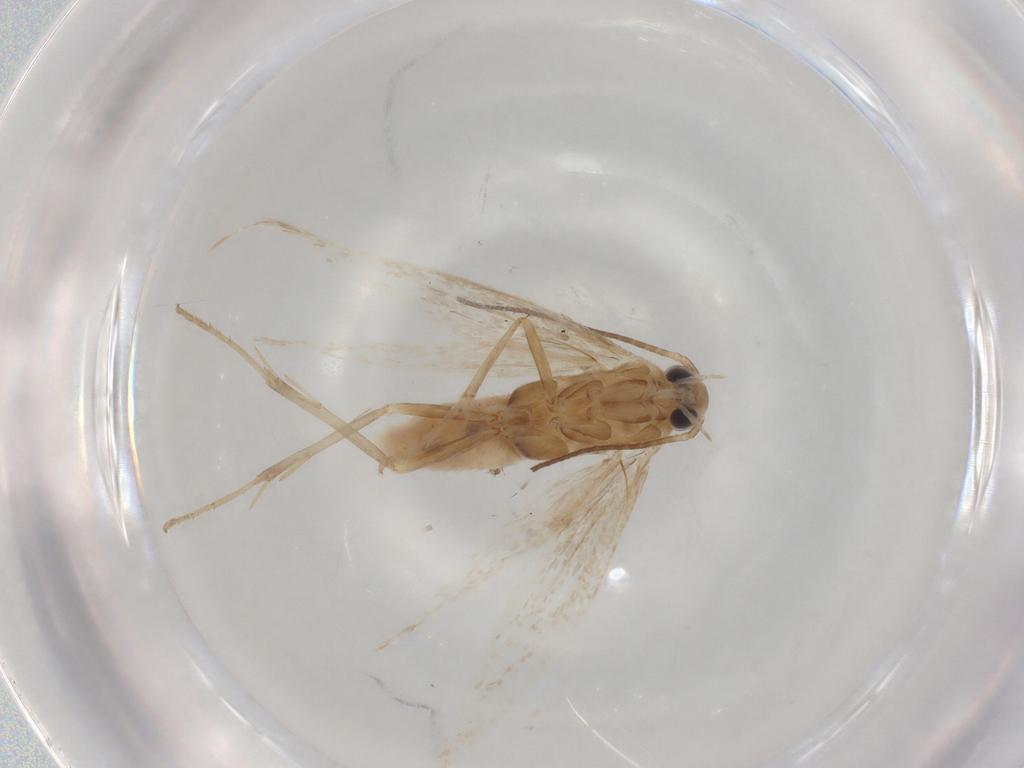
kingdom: Animalia
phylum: Arthropoda
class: Insecta
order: Lepidoptera
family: Coleophoridae
